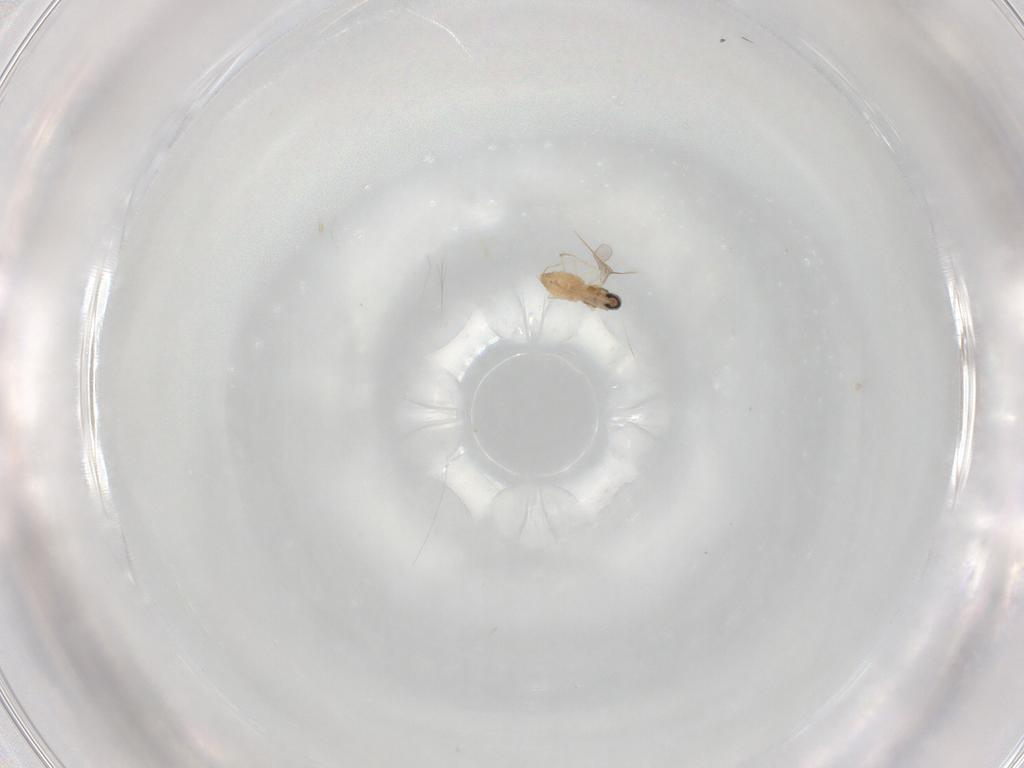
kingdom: Animalia
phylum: Arthropoda
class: Insecta
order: Diptera
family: Cecidomyiidae
